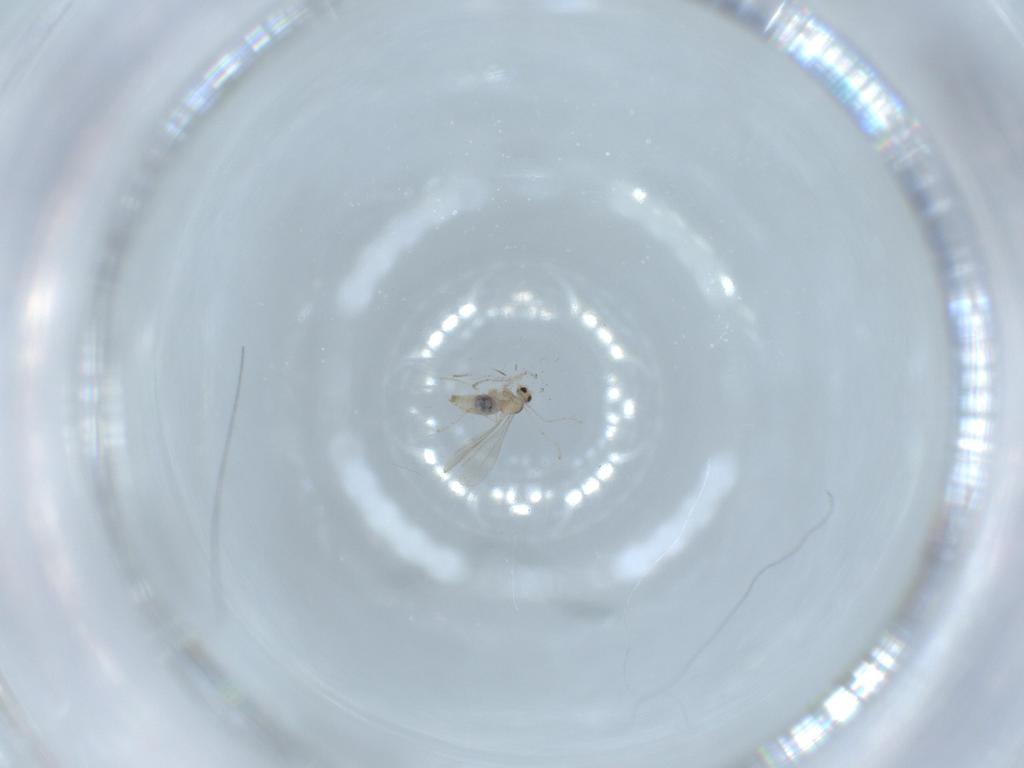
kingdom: Animalia
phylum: Arthropoda
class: Insecta
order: Diptera
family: Cecidomyiidae
